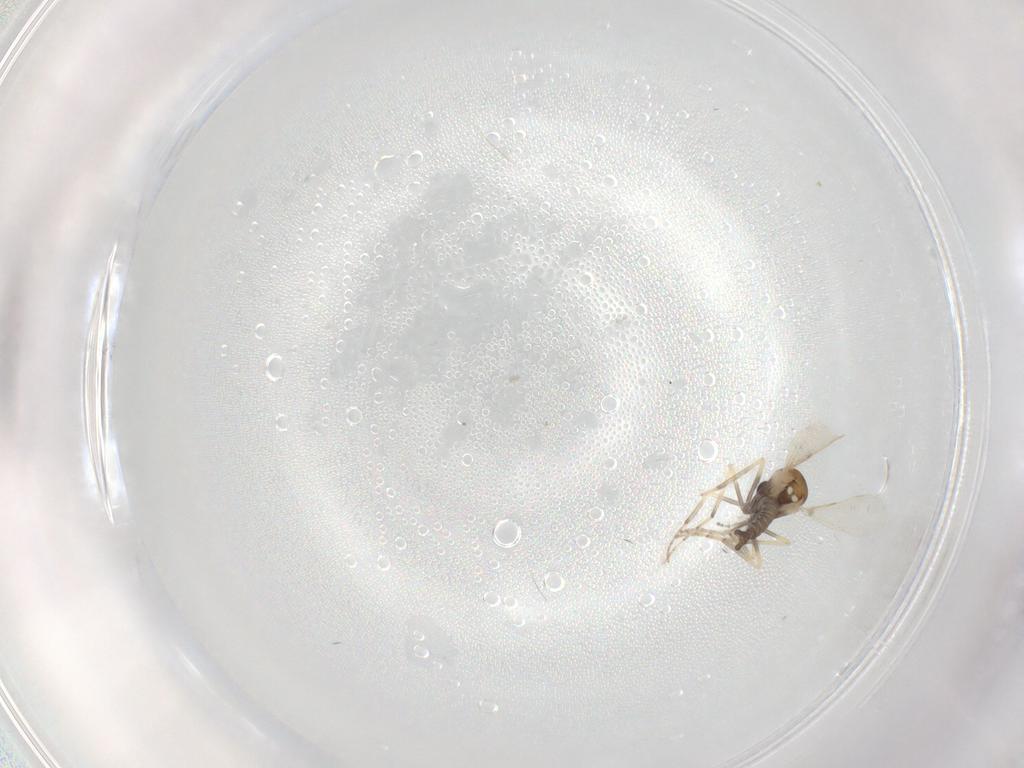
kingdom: Animalia
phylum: Arthropoda
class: Insecta
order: Diptera
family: Ceratopogonidae
